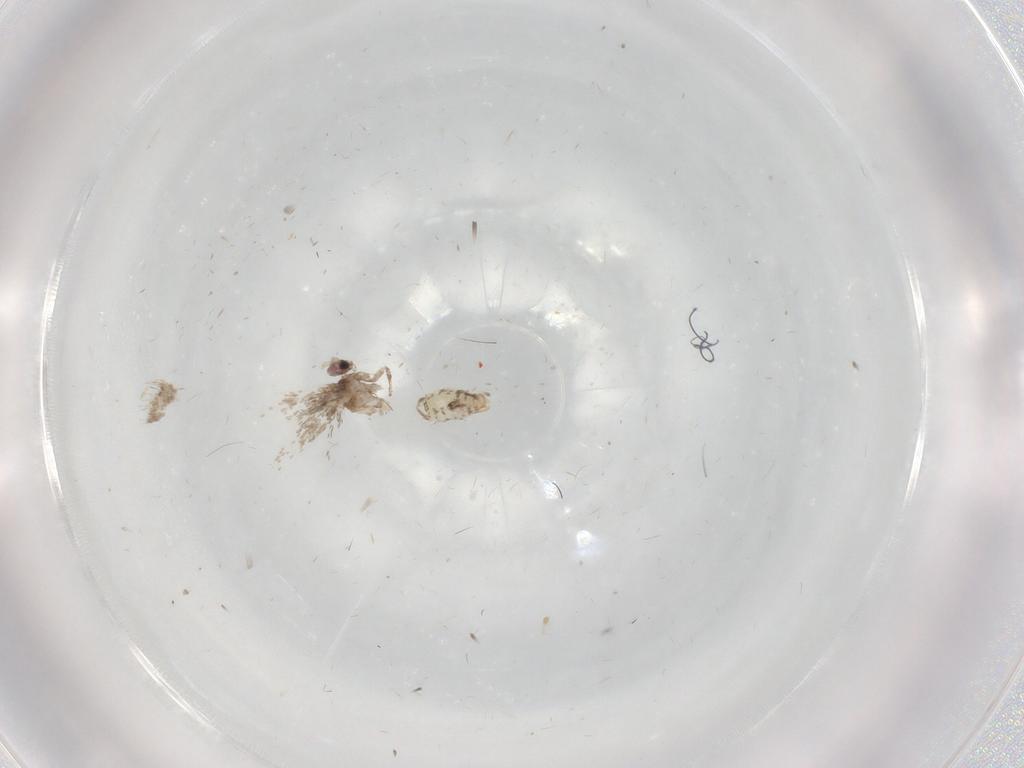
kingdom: Animalia
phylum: Arthropoda
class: Insecta
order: Lepidoptera
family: Nepticulidae
